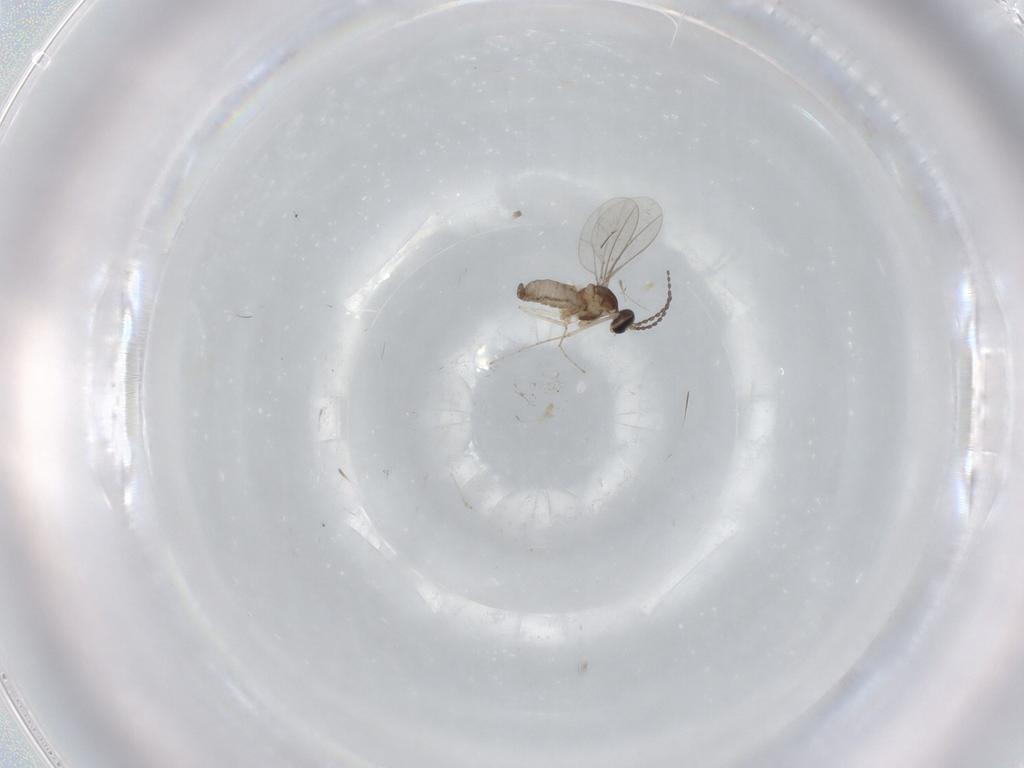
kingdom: Animalia
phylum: Arthropoda
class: Insecta
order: Diptera
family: Cecidomyiidae
